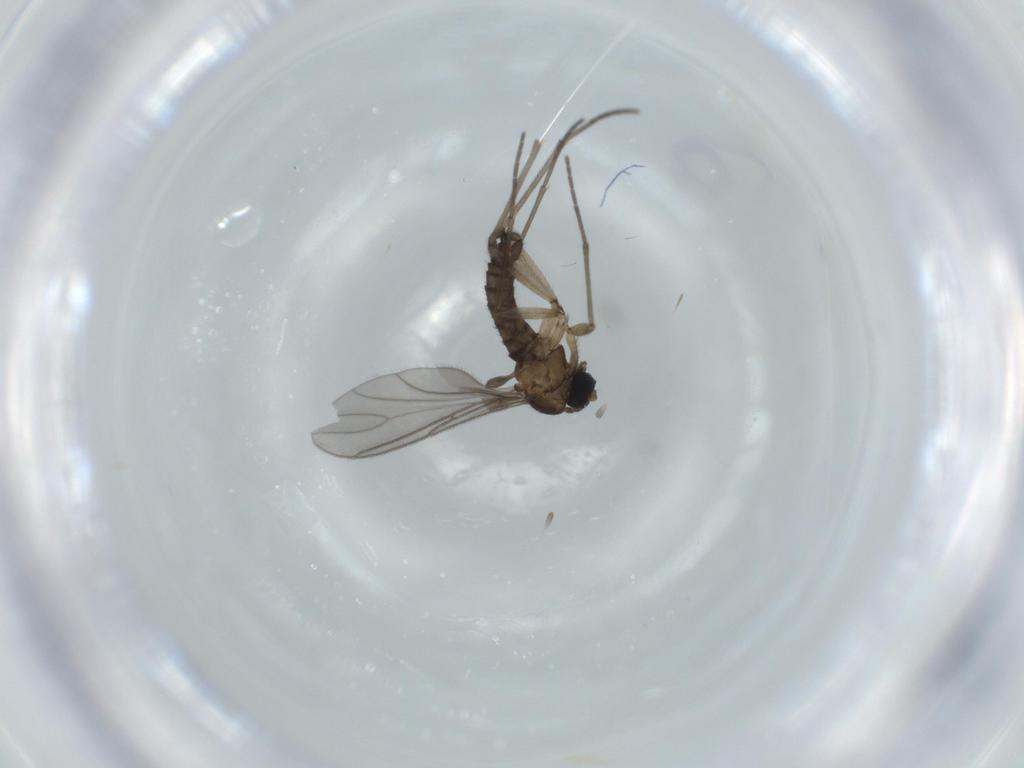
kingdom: Animalia
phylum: Arthropoda
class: Insecta
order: Diptera
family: Sciaridae
